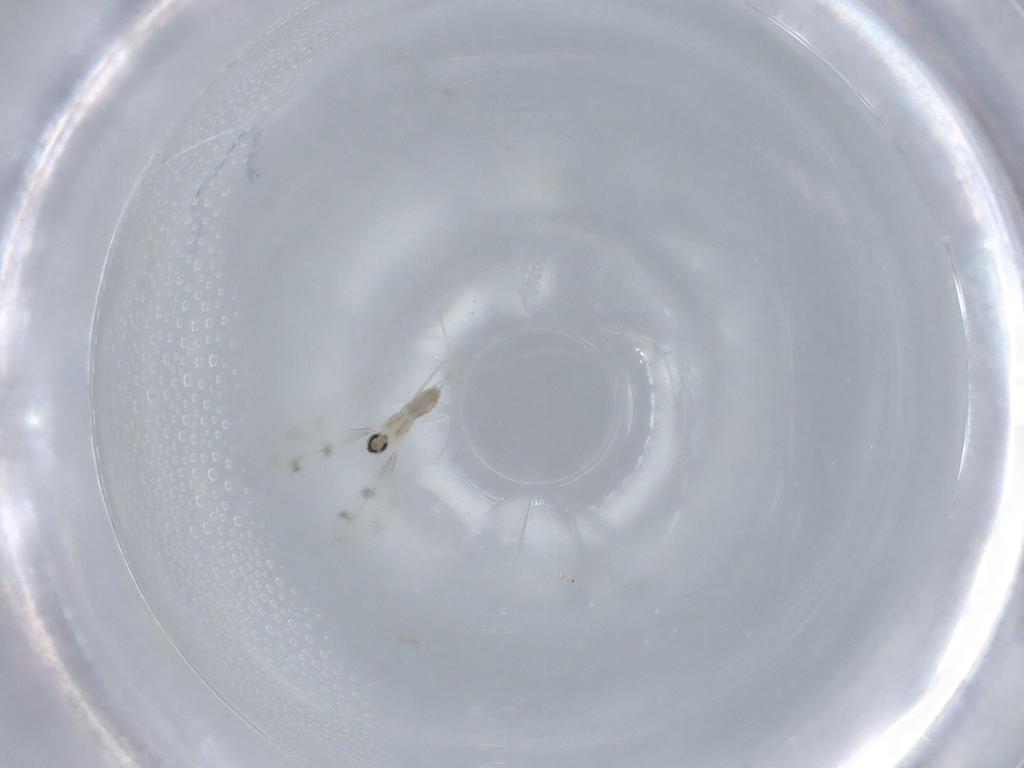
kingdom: Animalia
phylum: Arthropoda
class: Insecta
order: Diptera
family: Cecidomyiidae
